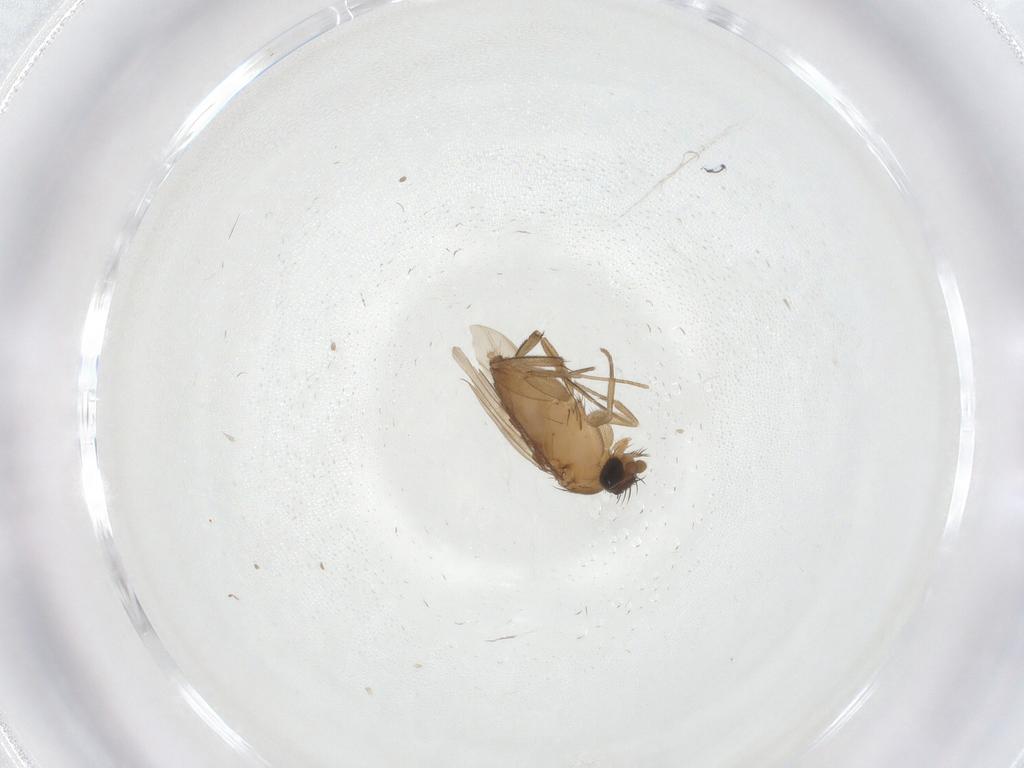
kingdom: Animalia
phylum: Arthropoda
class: Insecta
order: Diptera
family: Phoridae
